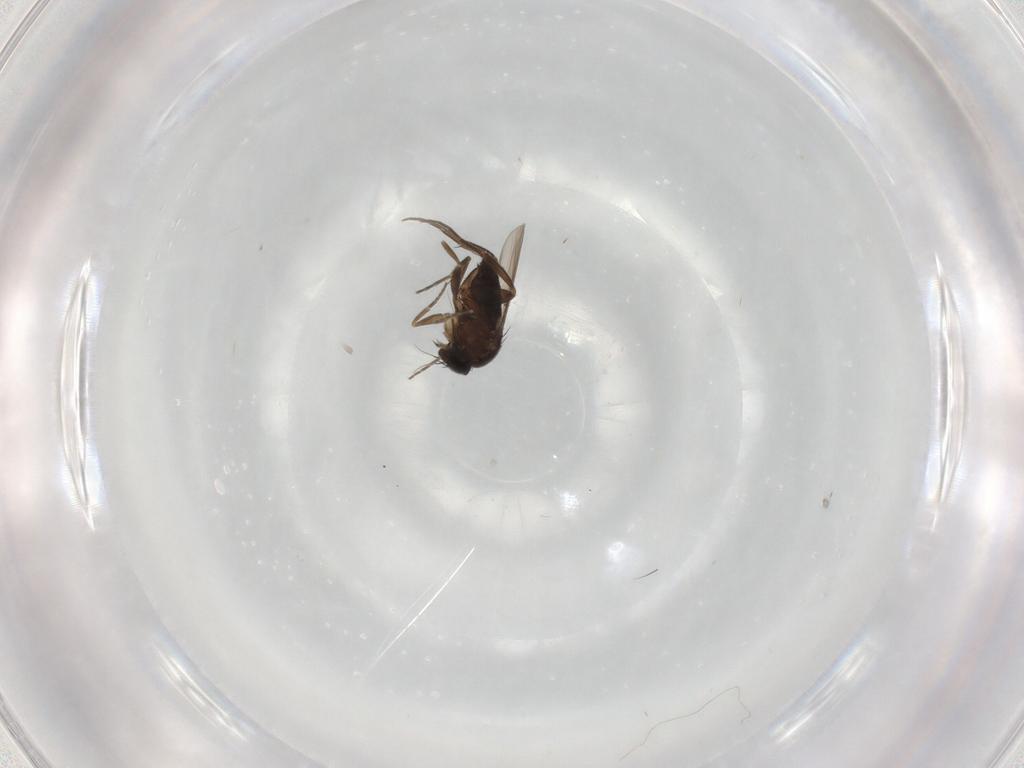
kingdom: Animalia
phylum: Arthropoda
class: Insecta
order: Diptera
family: Phoridae
